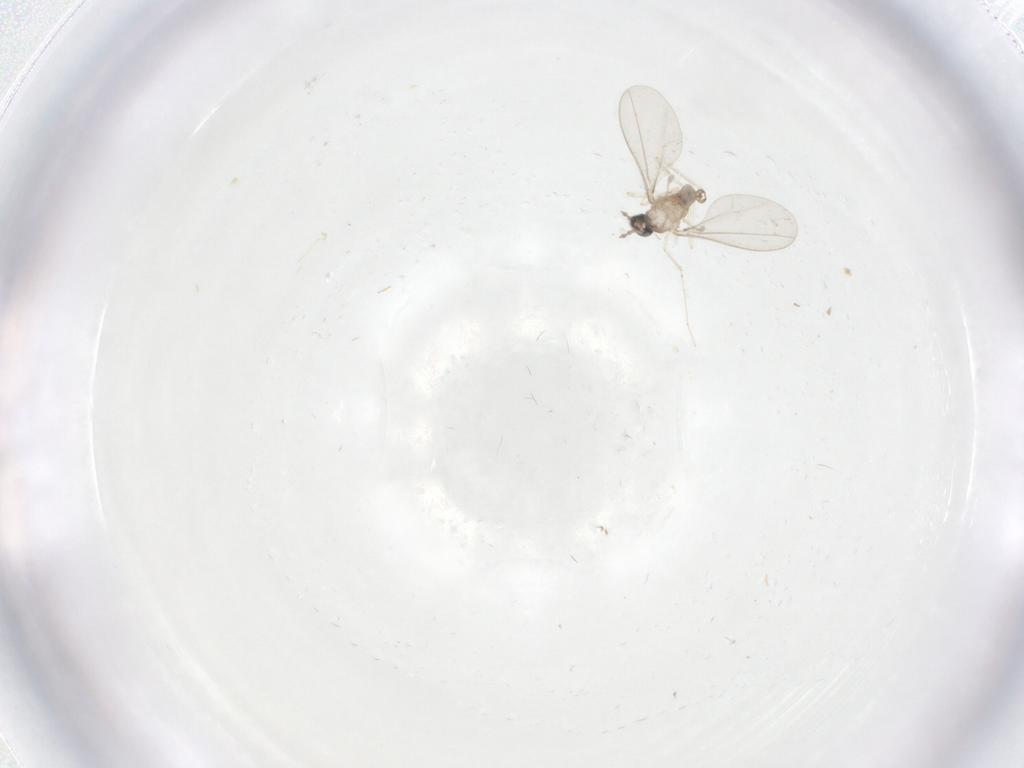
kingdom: Animalia
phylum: Arthropoda
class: Insecta
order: Diptera
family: Cecidomyiidae
